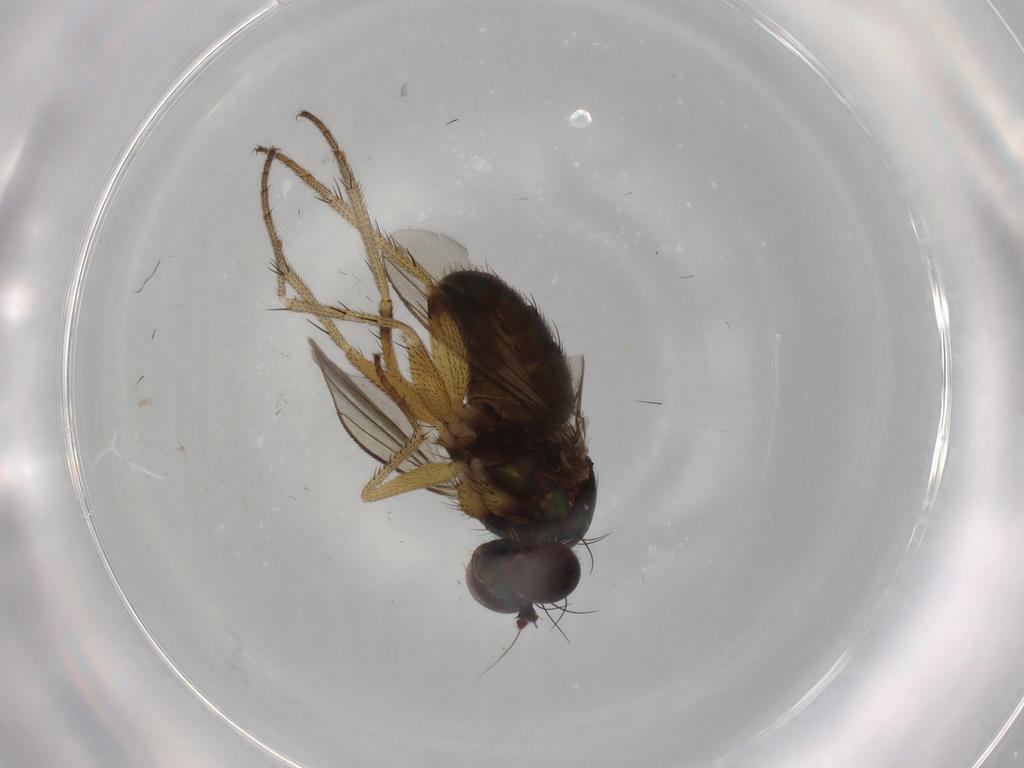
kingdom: Animalia
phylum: Arthropoda
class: Insecta
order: Diptera
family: Dolichopodidae
